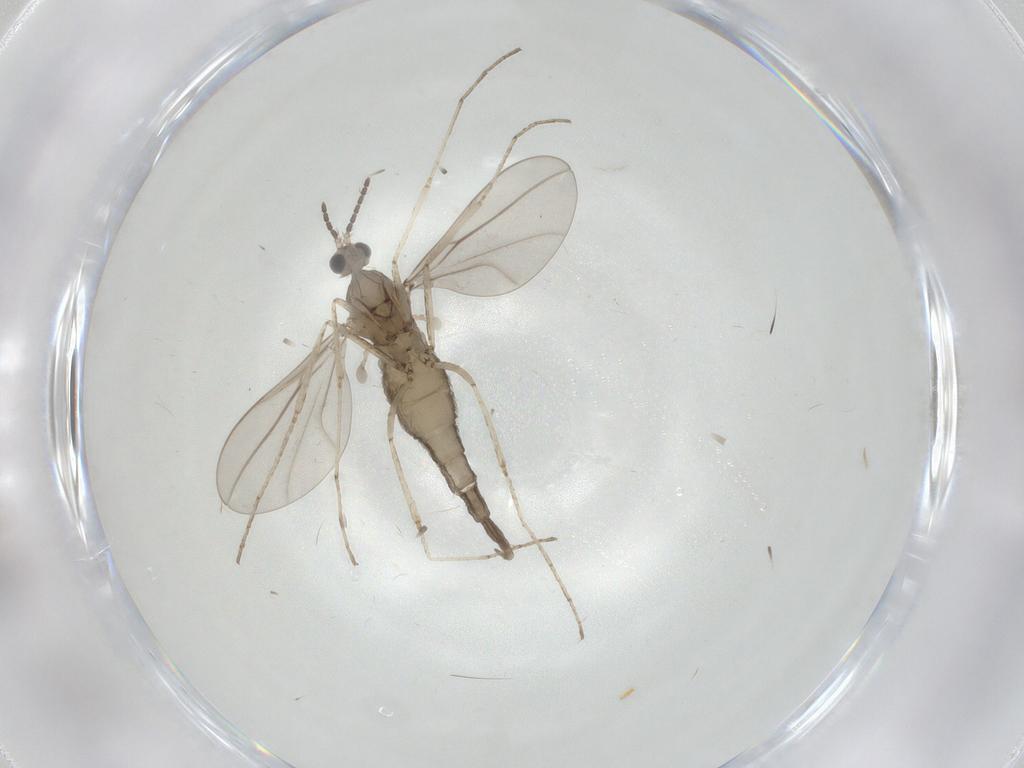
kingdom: Animalia
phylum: Arthropoda
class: Insecta
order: Diptera
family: Cecidomyiidae
